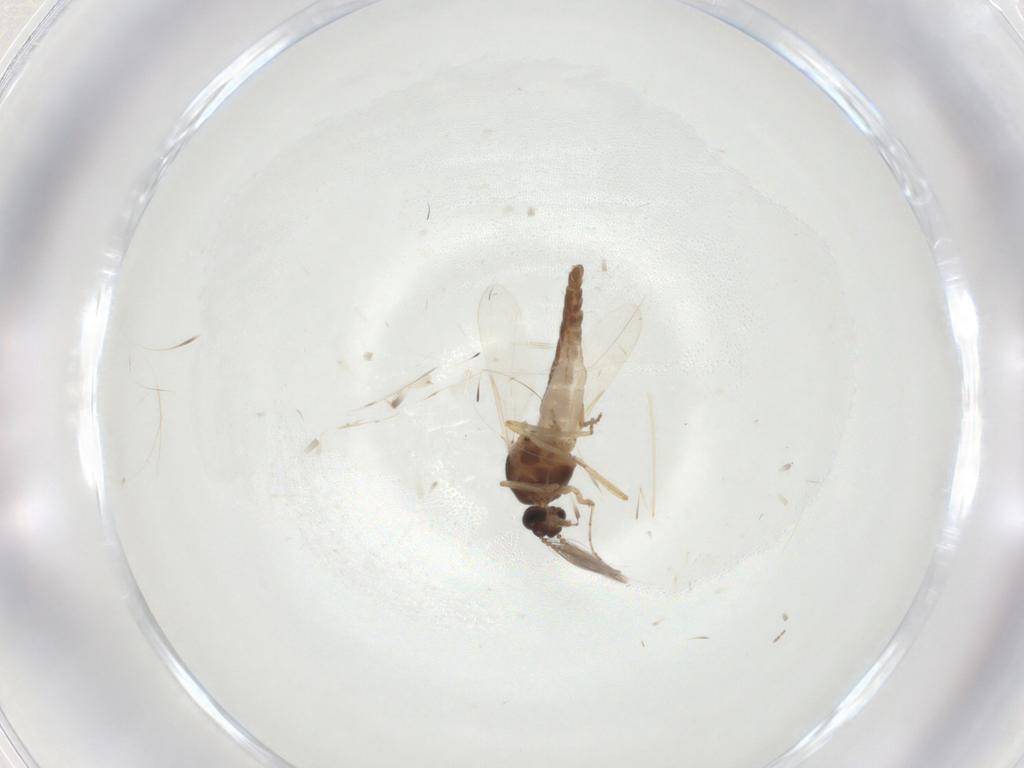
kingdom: Animalia
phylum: Arthropoda
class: Insecta
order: Diptera
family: Ceratopogonidae
